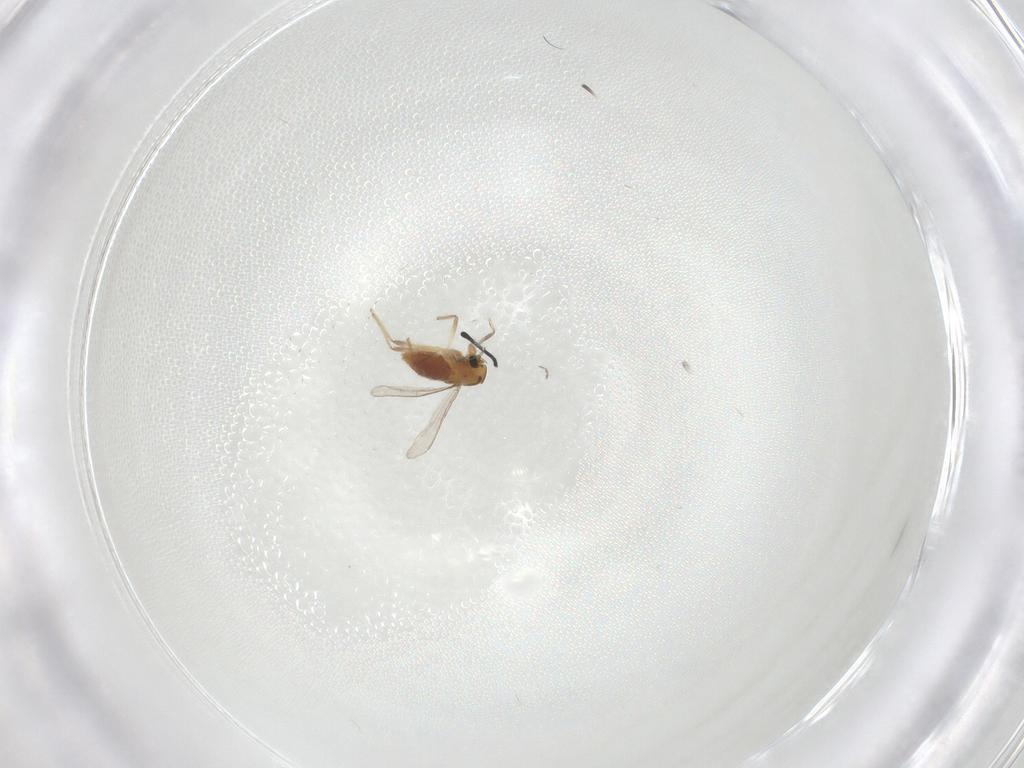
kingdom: Animalia
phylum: Arthropoda
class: Insecta
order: Diptera
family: Chironomidae
